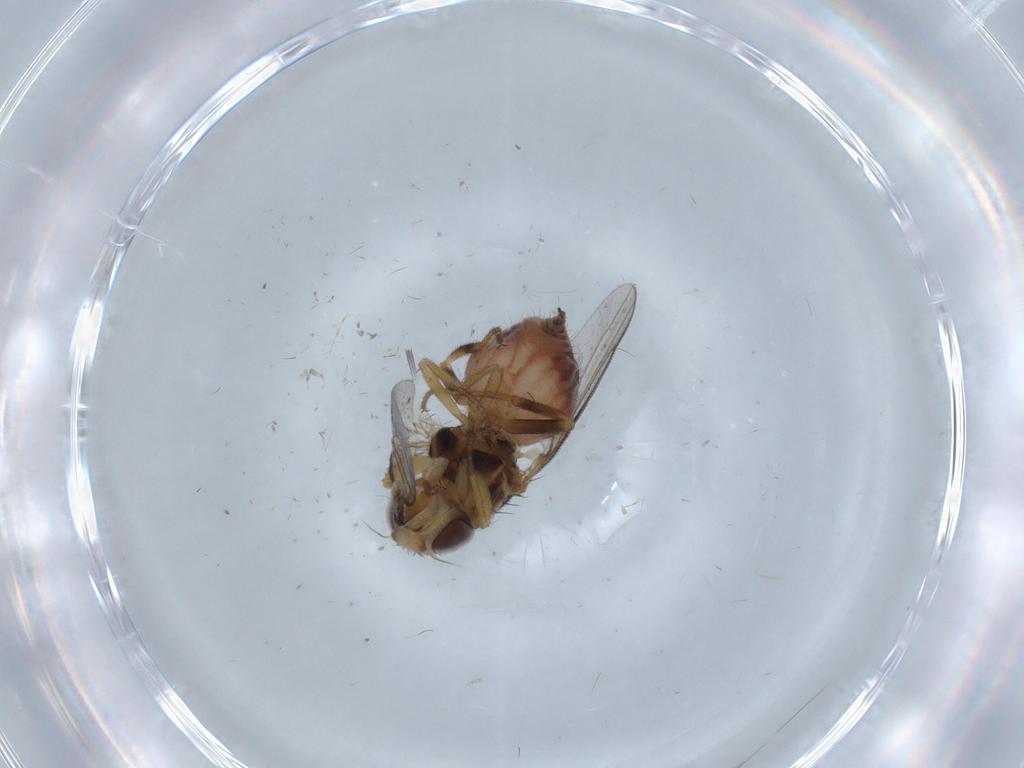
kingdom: Animalia
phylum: Arthropoda
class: Insecta
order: Diptera
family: Chloropidae
